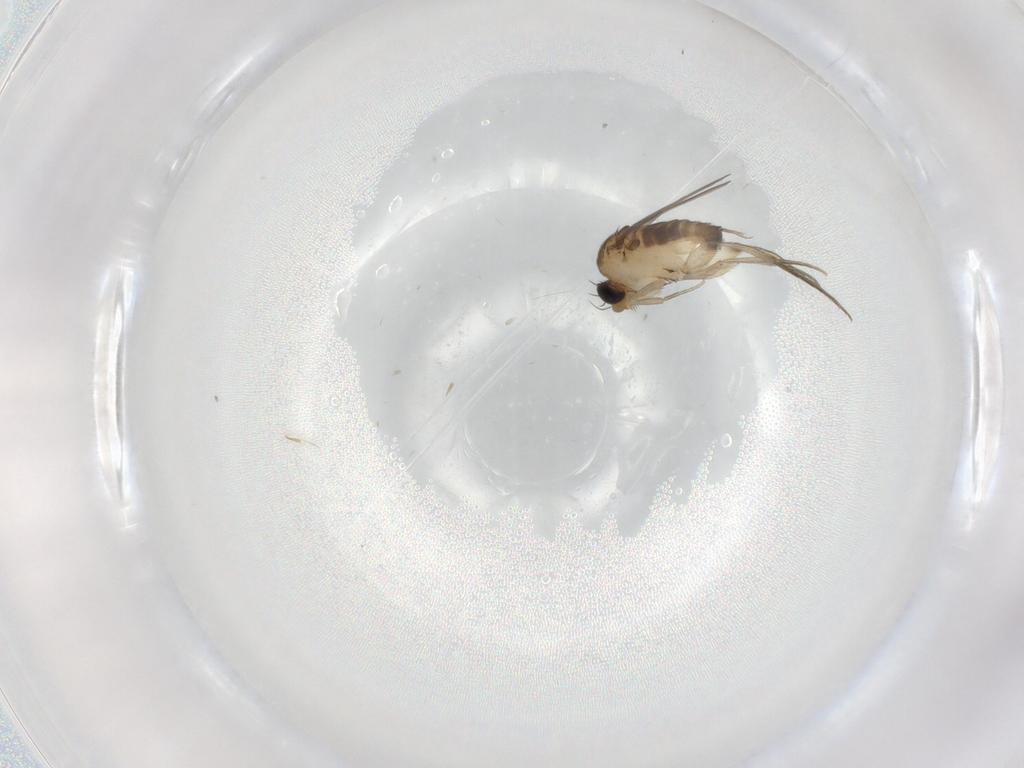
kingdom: Animalia
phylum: Arthropoda
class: Insecta
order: Diptera
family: Phoridae
